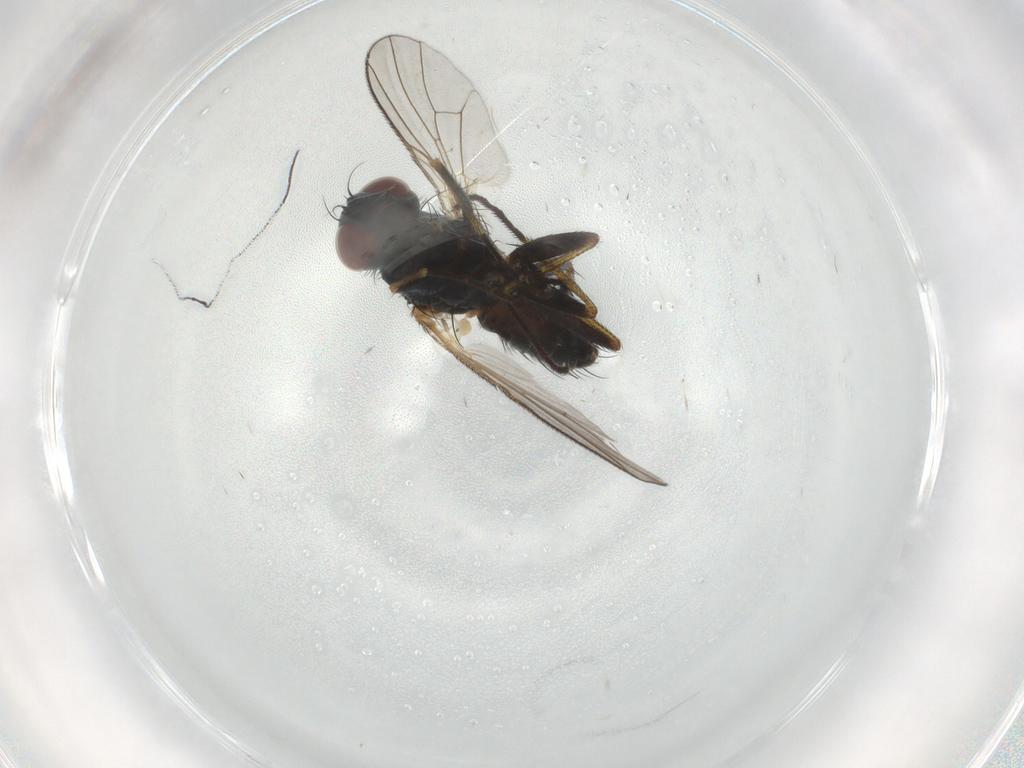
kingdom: Animalia
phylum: Arthropoda
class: Insecta
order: Diptera
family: Muscidae
